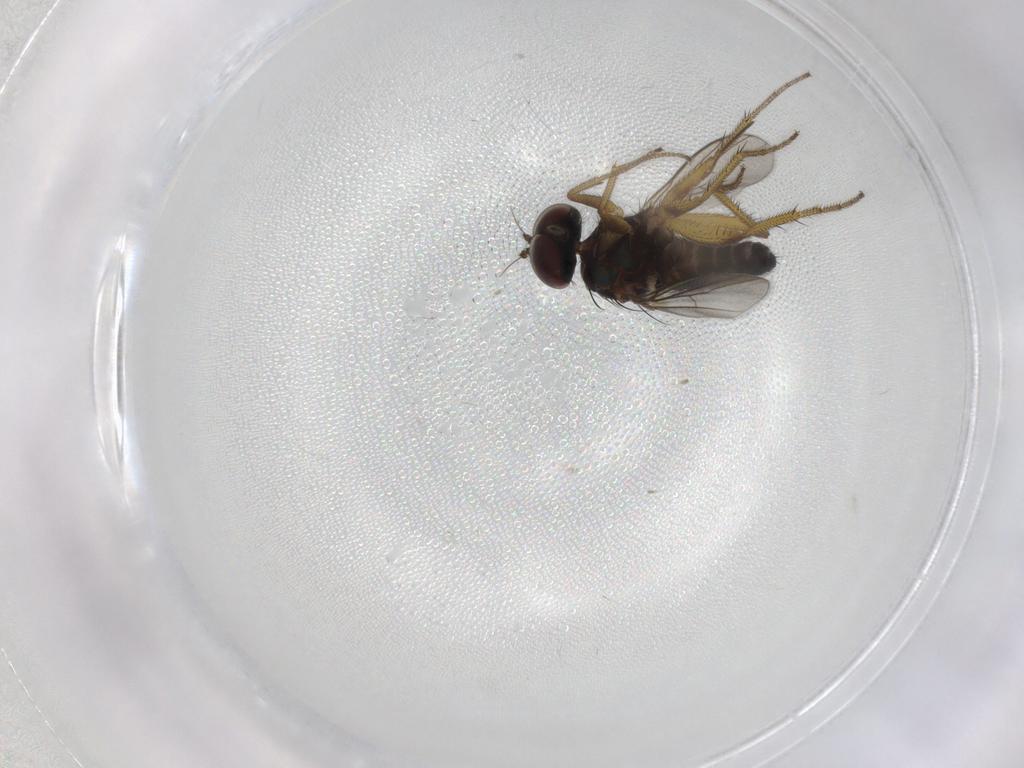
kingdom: Animalia
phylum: Arthropoda
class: Insecta
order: Diptera
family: Chironomidae
